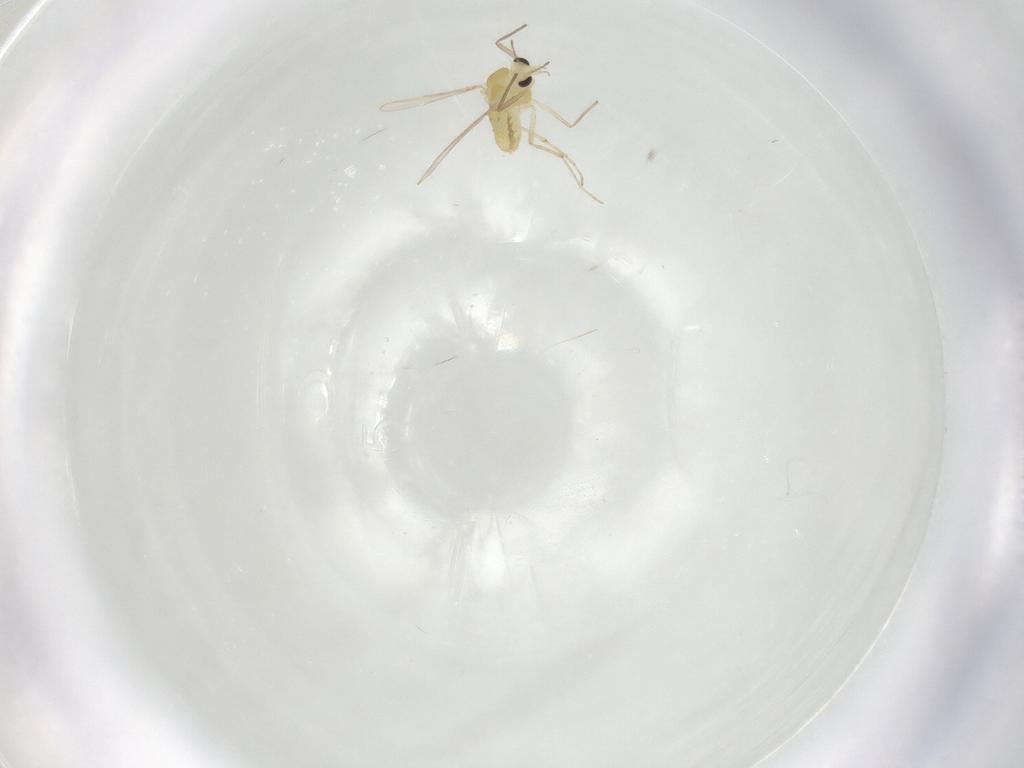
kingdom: Animalia
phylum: Arthropoda
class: Insecta
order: Diptera
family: Chironomidae
